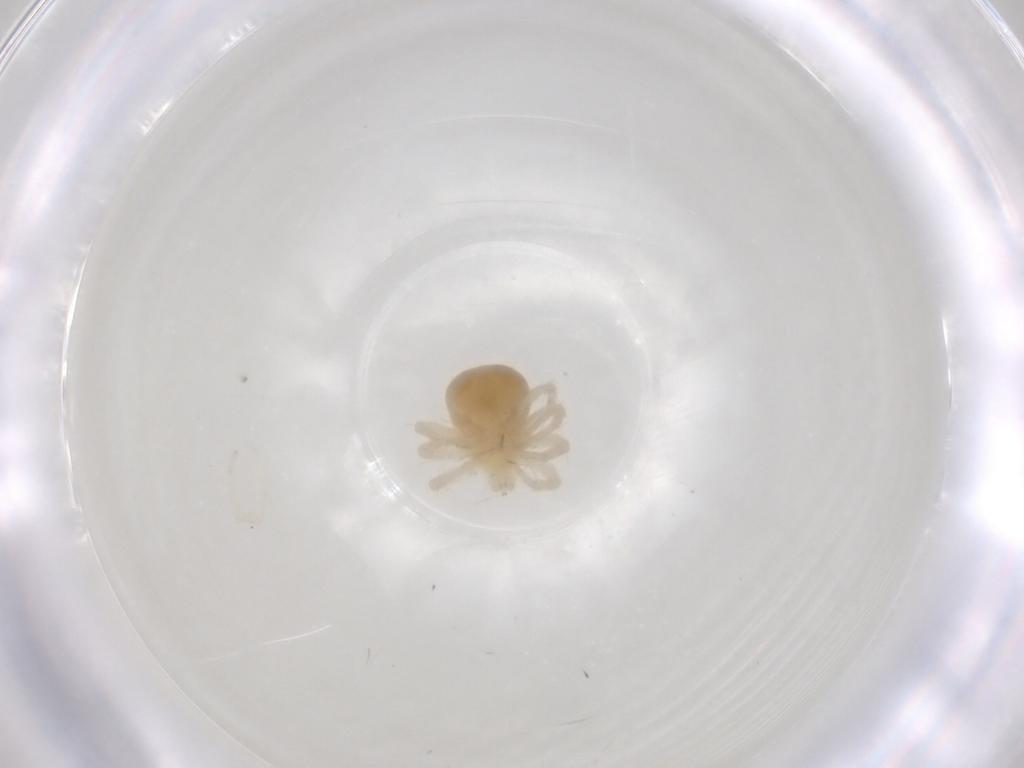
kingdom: Animalia
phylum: Arthropoda
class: Arachnida
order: Trombidiformes
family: Anystidae
